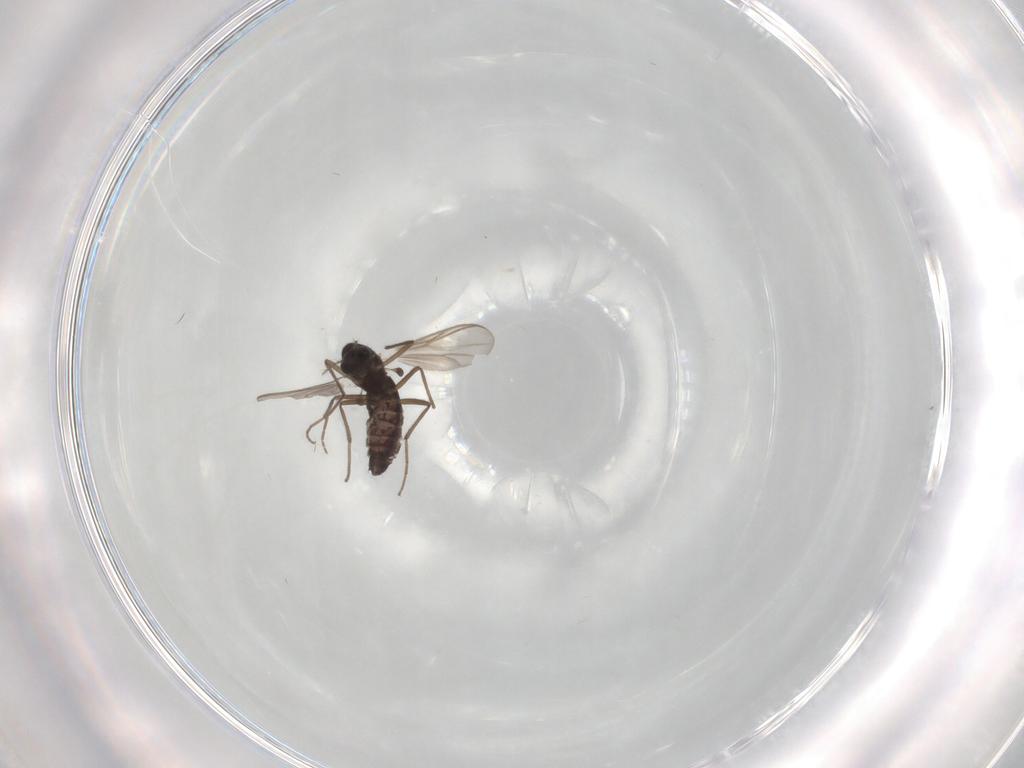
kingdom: Animalia
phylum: Arthropoda
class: Insecta
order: Diptera
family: Chironomidae
